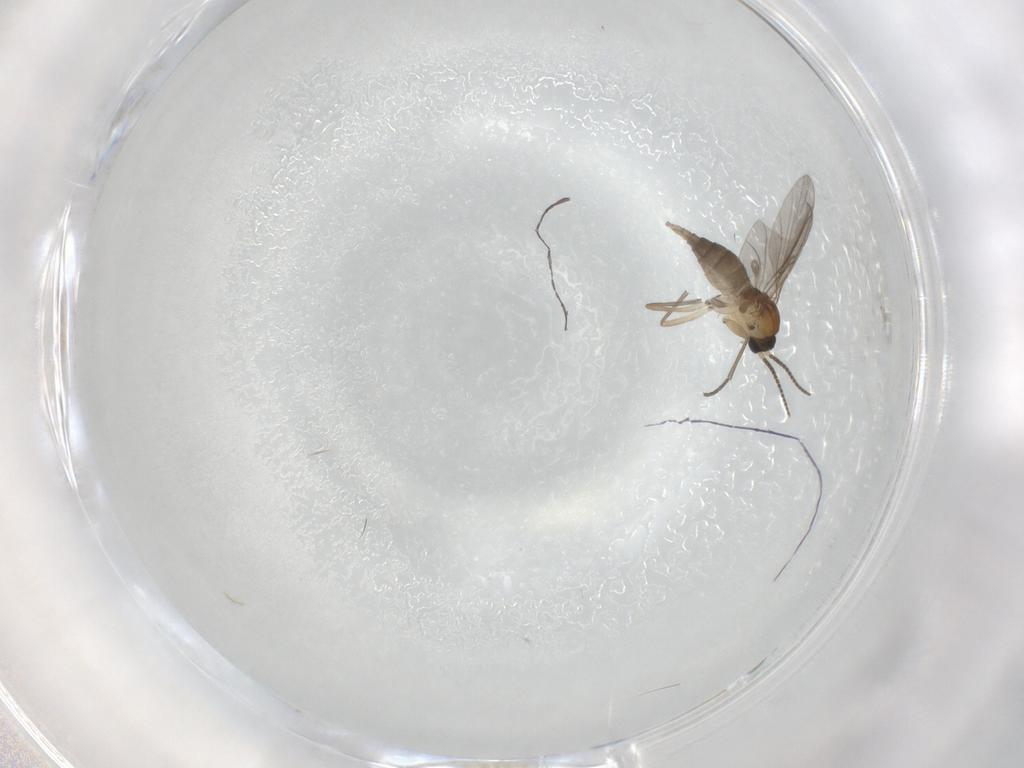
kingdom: Animalia
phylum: Arthropoda
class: Insecta
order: Diptera
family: Sciaridae
